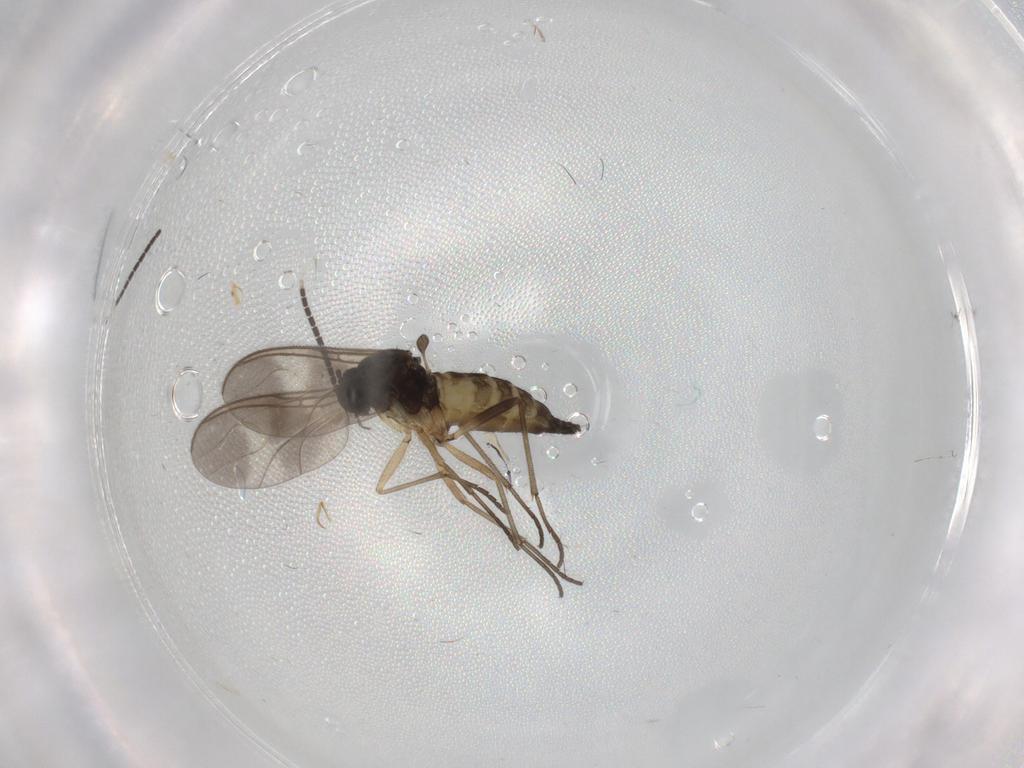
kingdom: Animalia
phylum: Arthropoda
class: Insecta
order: Diptera
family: Sciaridae
